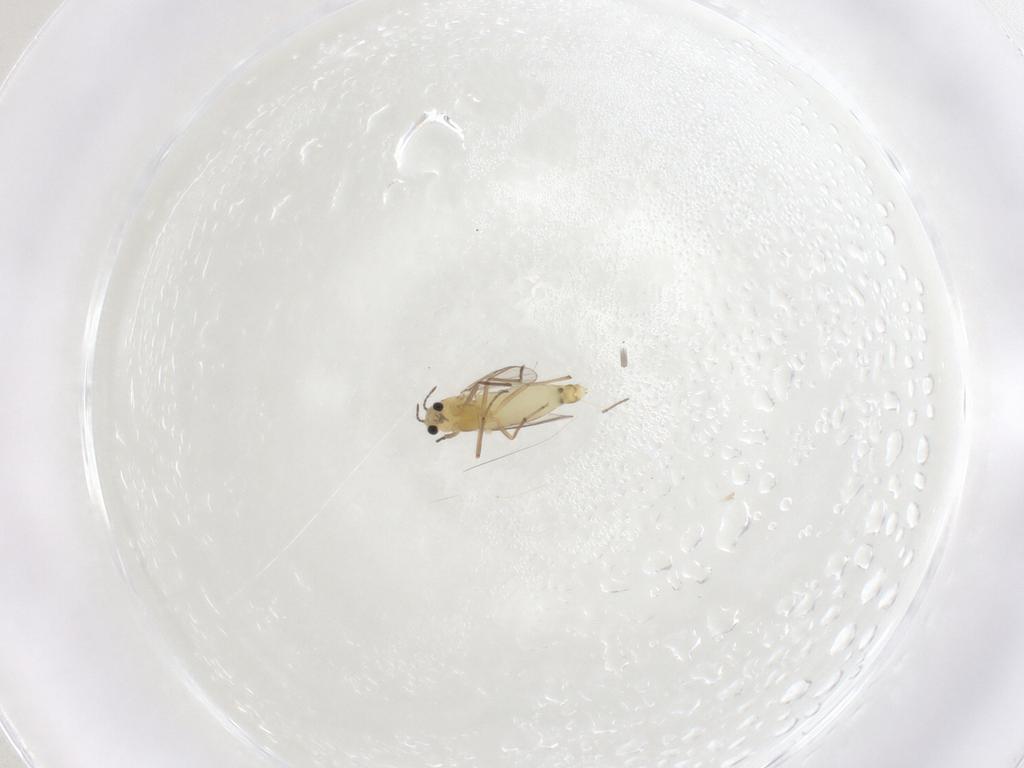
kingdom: Animalia
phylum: Arthropoda
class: Insecta
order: Diptera
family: Chironomidae
